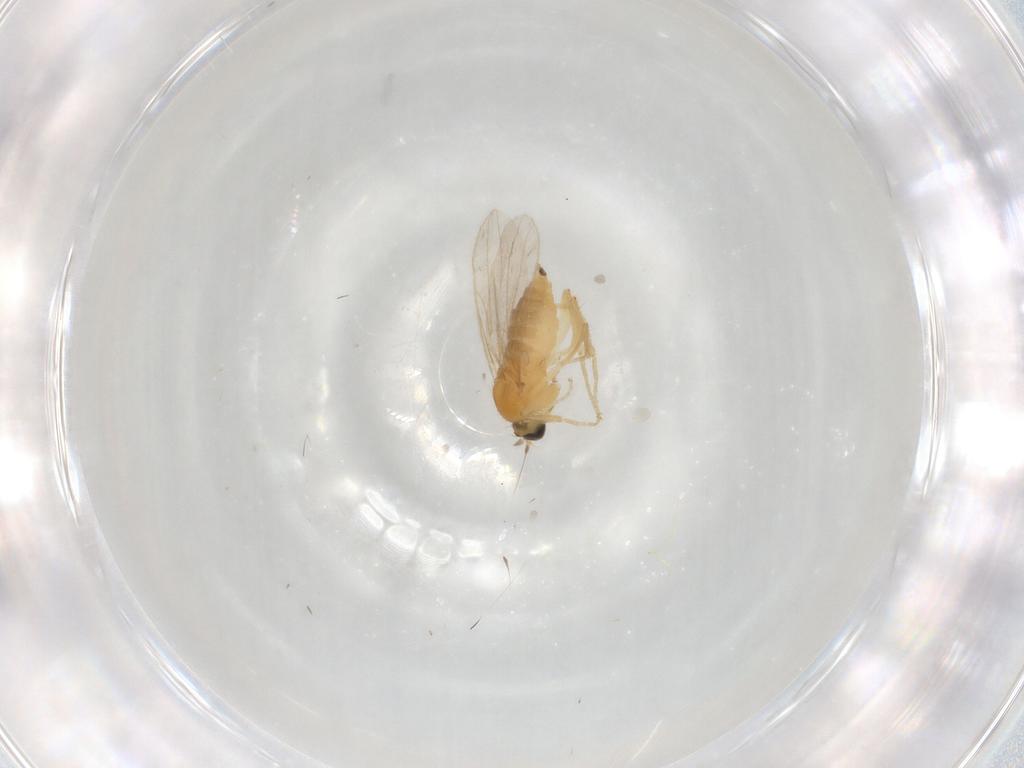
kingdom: Animalia
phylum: Arthropoda
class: Insecta
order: Diptera
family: Hybotidae
